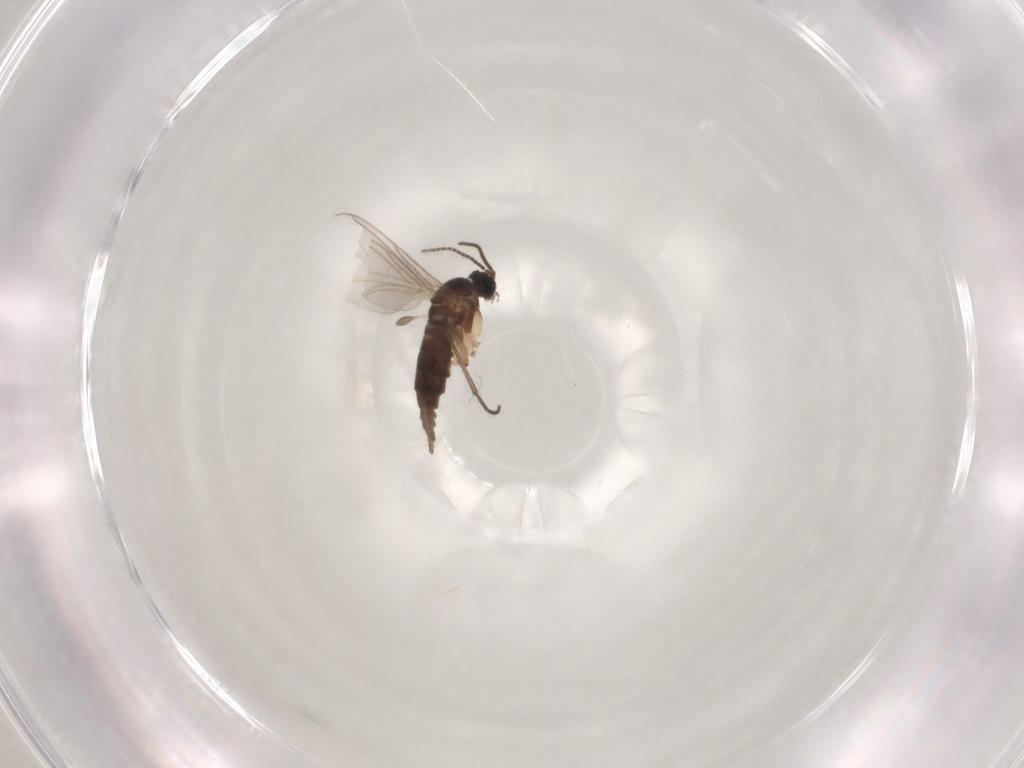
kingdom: Animalia
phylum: Arthropoda
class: Insecta
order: Diptera
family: Sciaridae
